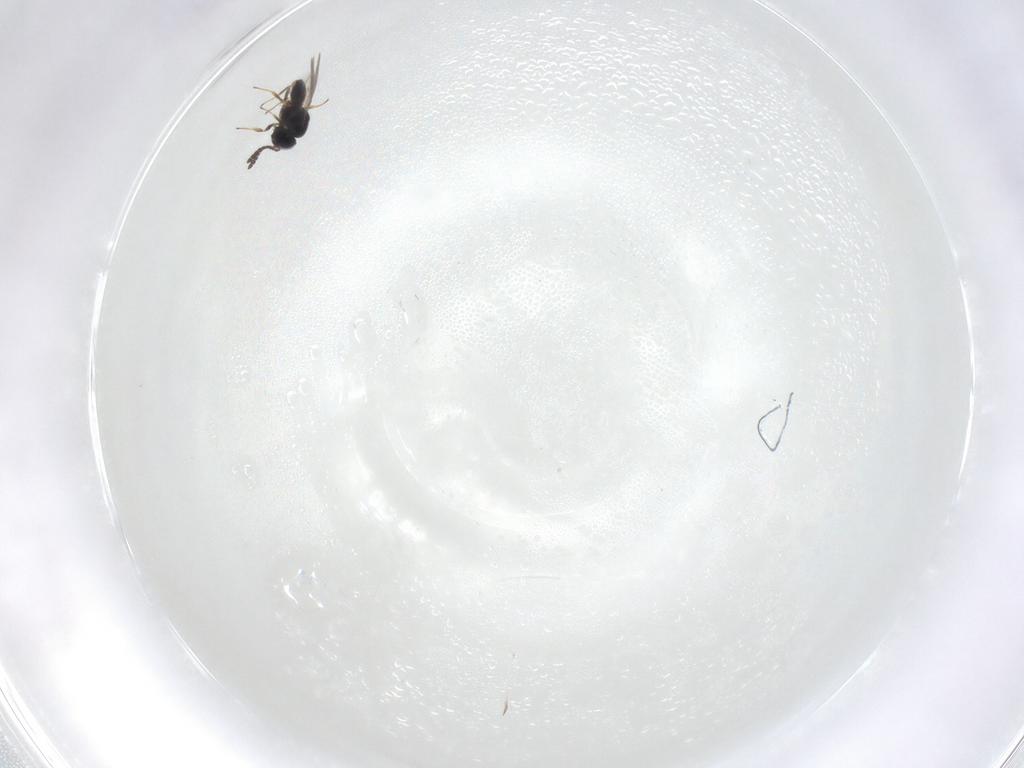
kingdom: Animalia
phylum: Arthropoda
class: Insecta
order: Hymenoptera
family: Scelionidae
